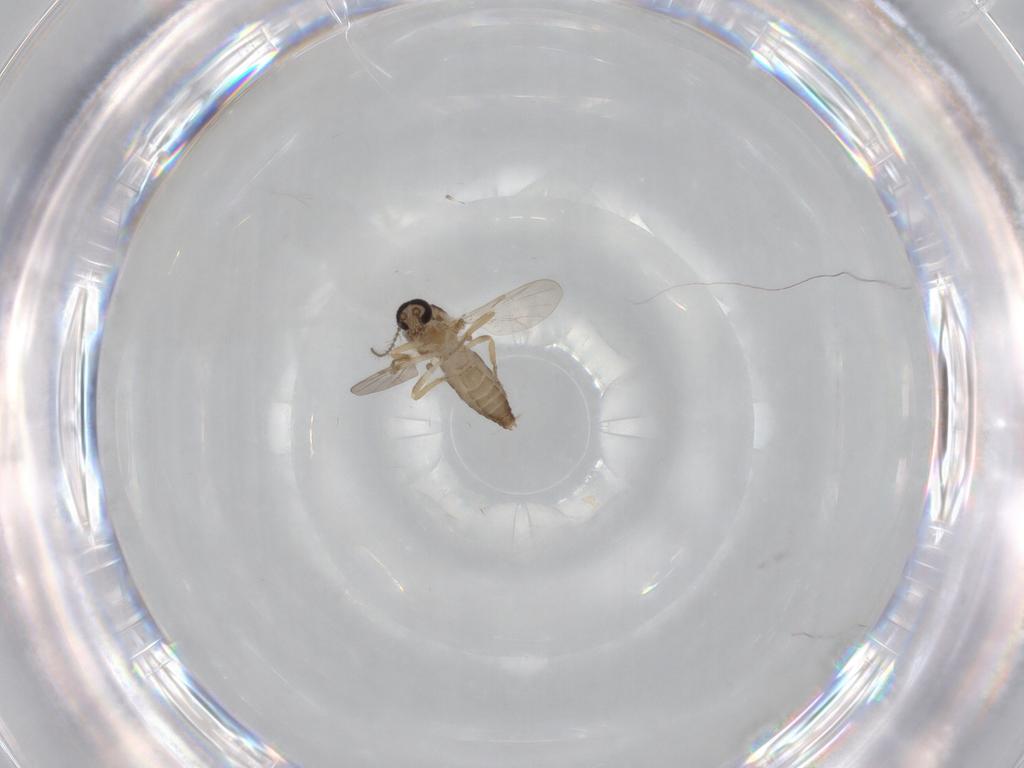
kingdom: Animalia
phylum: Arthropoda
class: Insecta
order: Diptera
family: Ceratopogonidae
